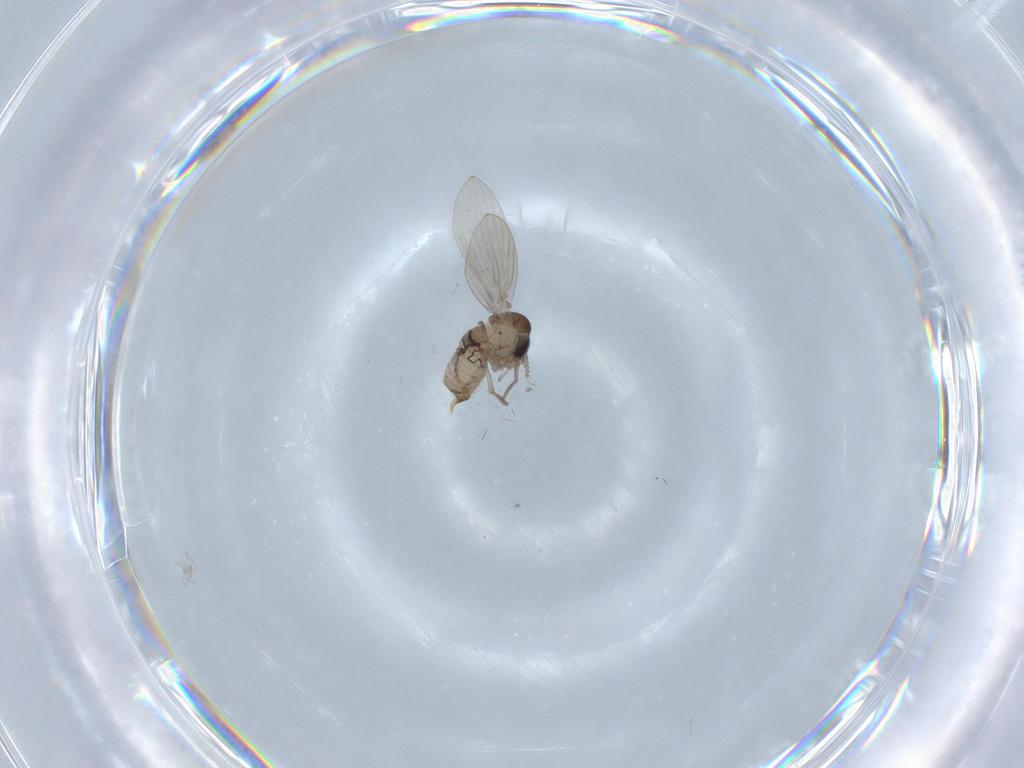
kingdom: Animalia
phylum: Arthropoda
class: Insecta
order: Diptera
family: Psychodidae
